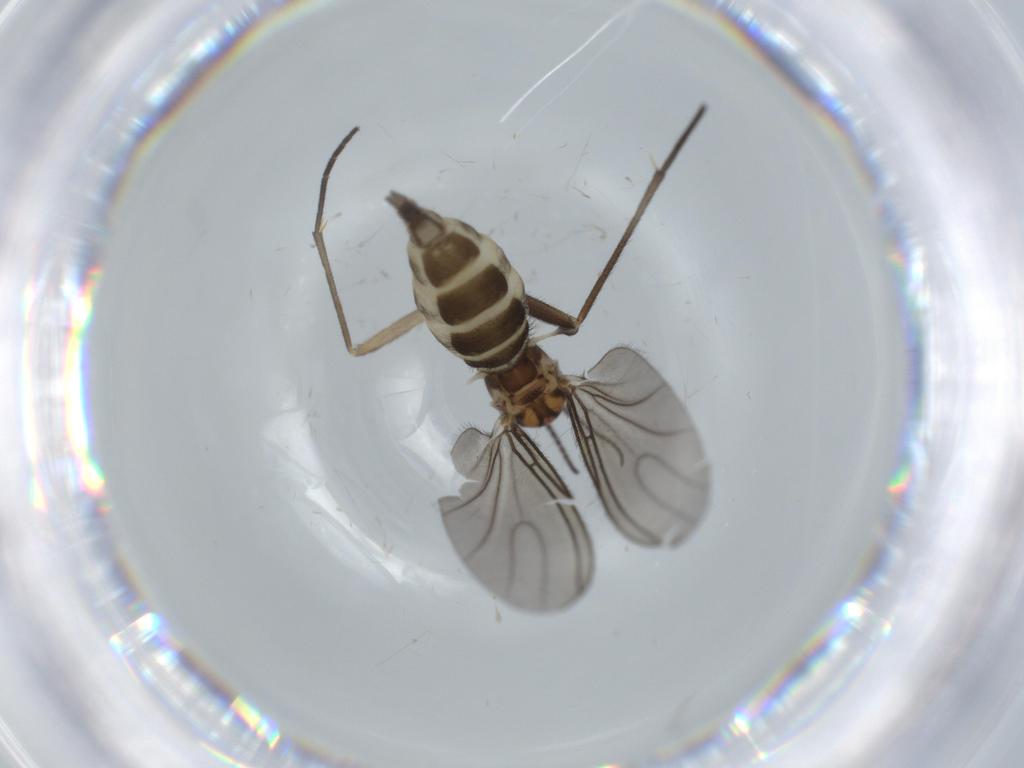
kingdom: Animalia
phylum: Arthropoda
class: Insecta
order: Diptera
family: Sciaridae
